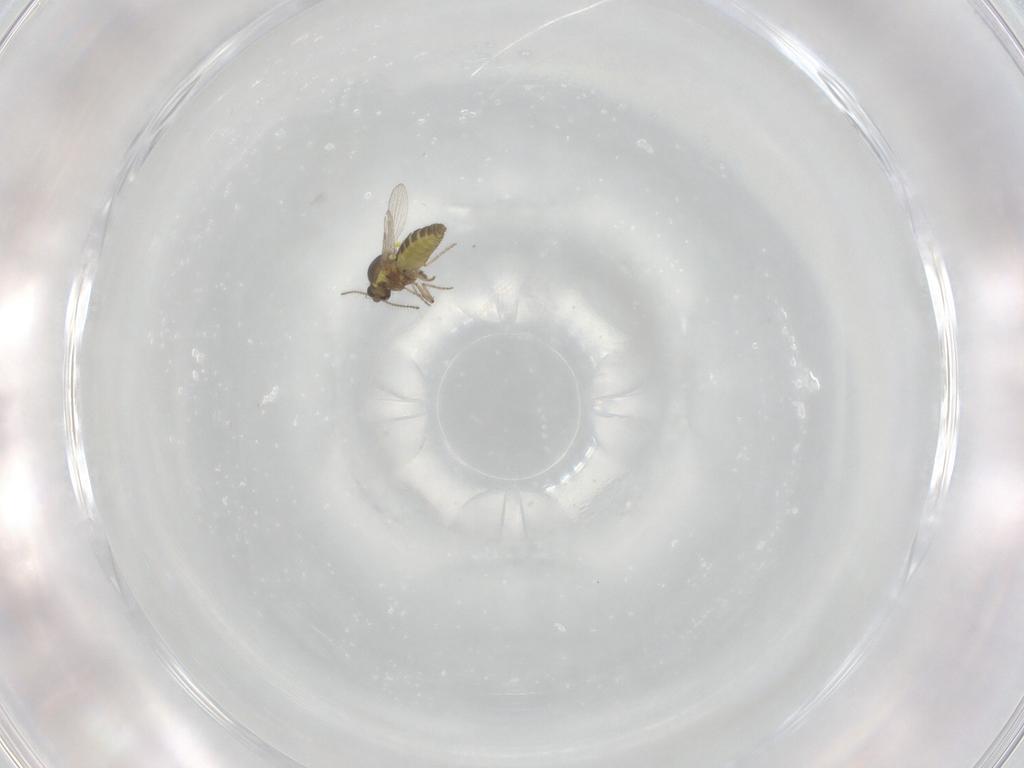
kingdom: Animalia
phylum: Arthropoda
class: Insecta
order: Diptera
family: Ceratopogonidae
